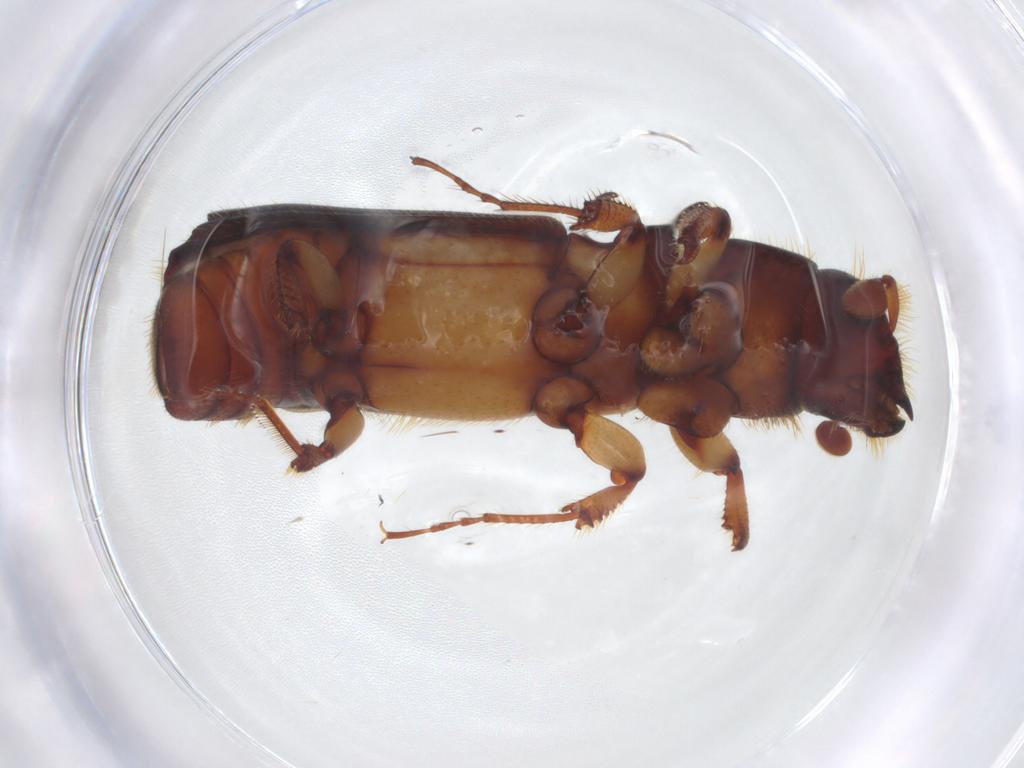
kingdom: Animalia
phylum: Arthropoda
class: Insecta
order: Coleoptera
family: Curculionidae
